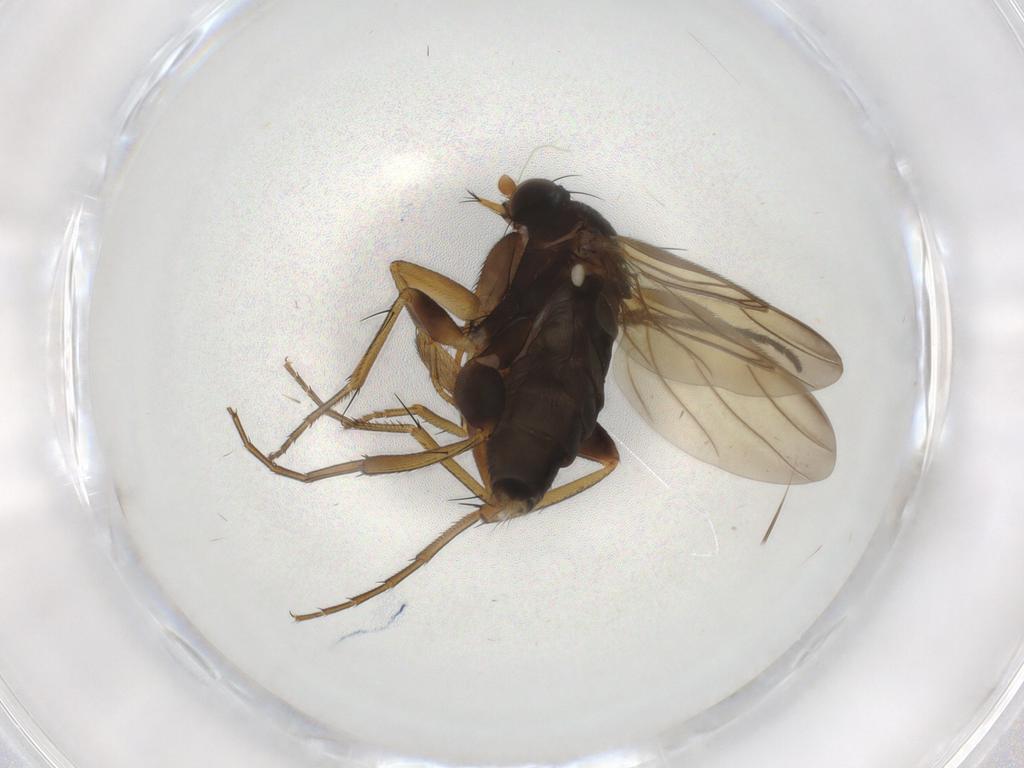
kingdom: Animalia
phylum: Arthropoda
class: Insecta
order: Diptera
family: Phoridae
